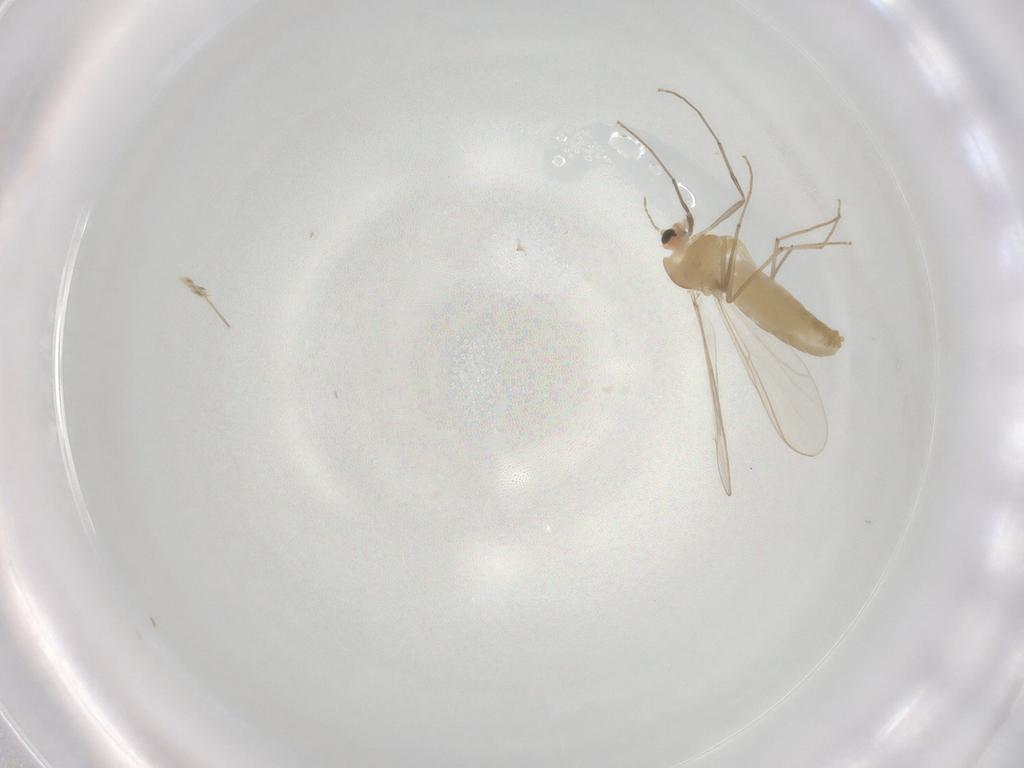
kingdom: Animalia
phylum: Arthropoda
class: Insecta
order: Diptera
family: Chironomidae
